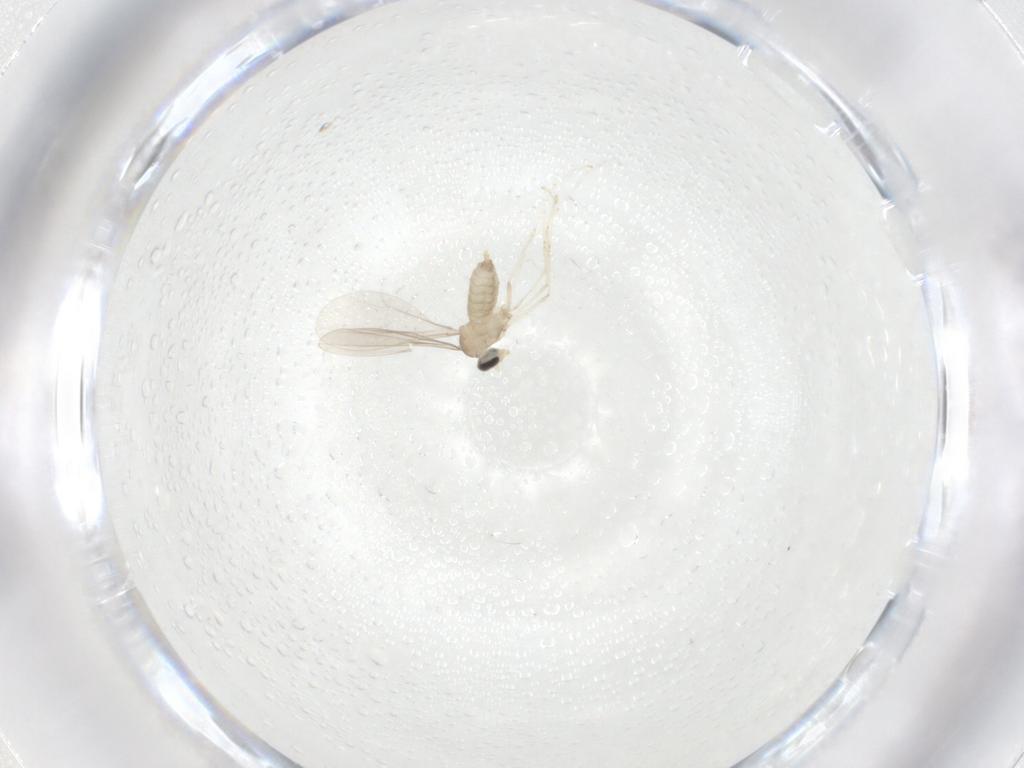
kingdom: Animalia
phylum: Arthropoda
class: Insecta
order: Diptera
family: Cecidomyiidae
